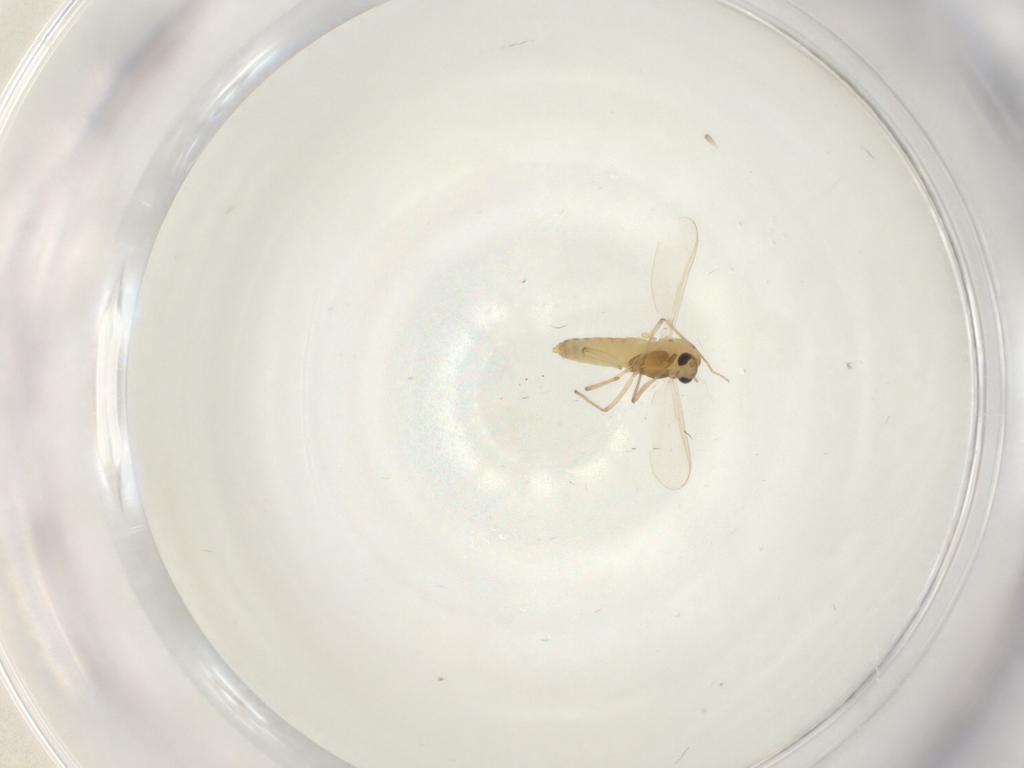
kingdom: Animalia
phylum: Arthropoda
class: Insecta
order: Diptera
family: Chironomidae
